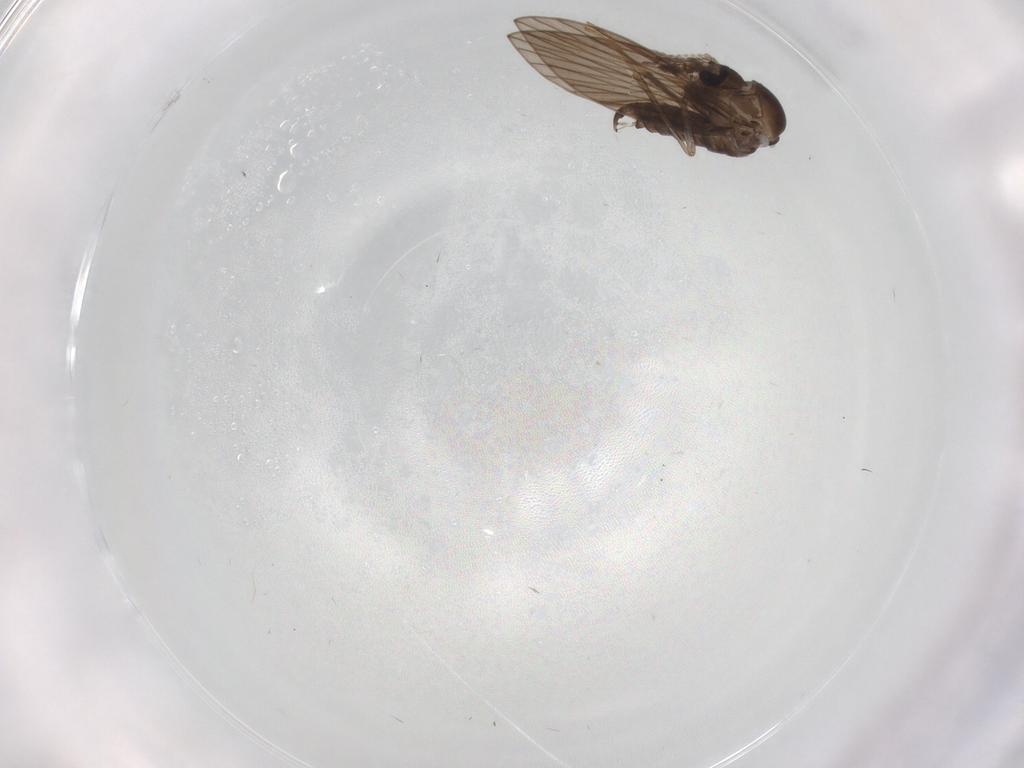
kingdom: Animalia
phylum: Arthropoda
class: Insecta
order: Diptera
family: Psychodidae
